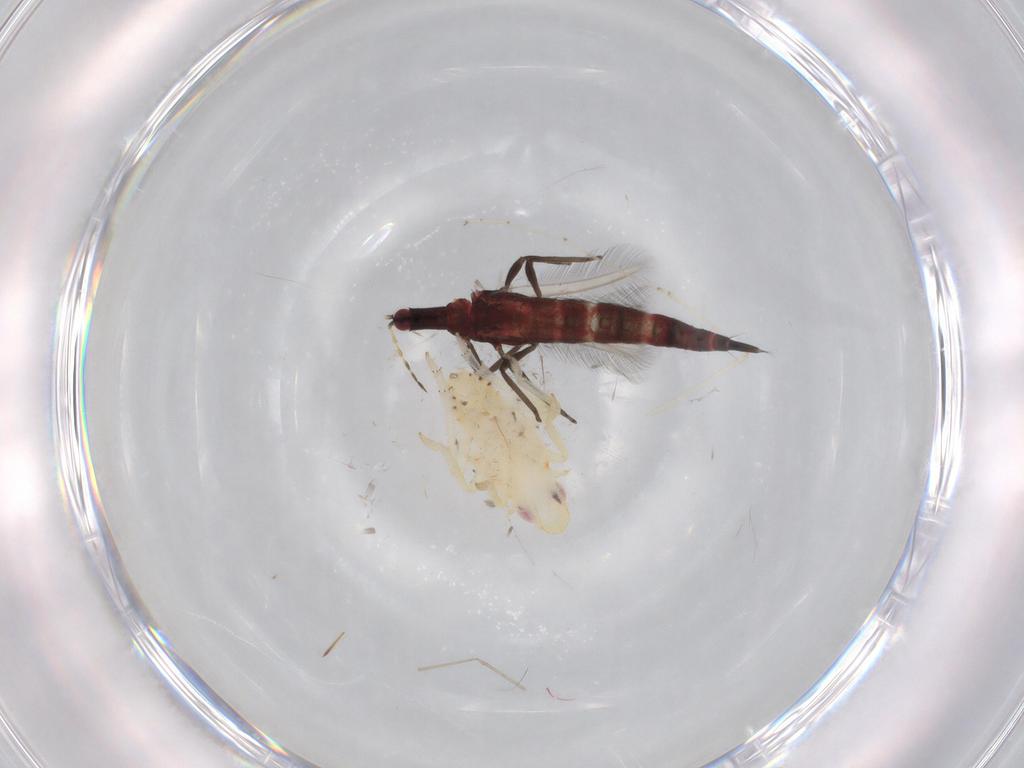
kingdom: Animalia
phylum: Arthropoda
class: Insecta
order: Thysanoptera
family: Phlaeothripidae
